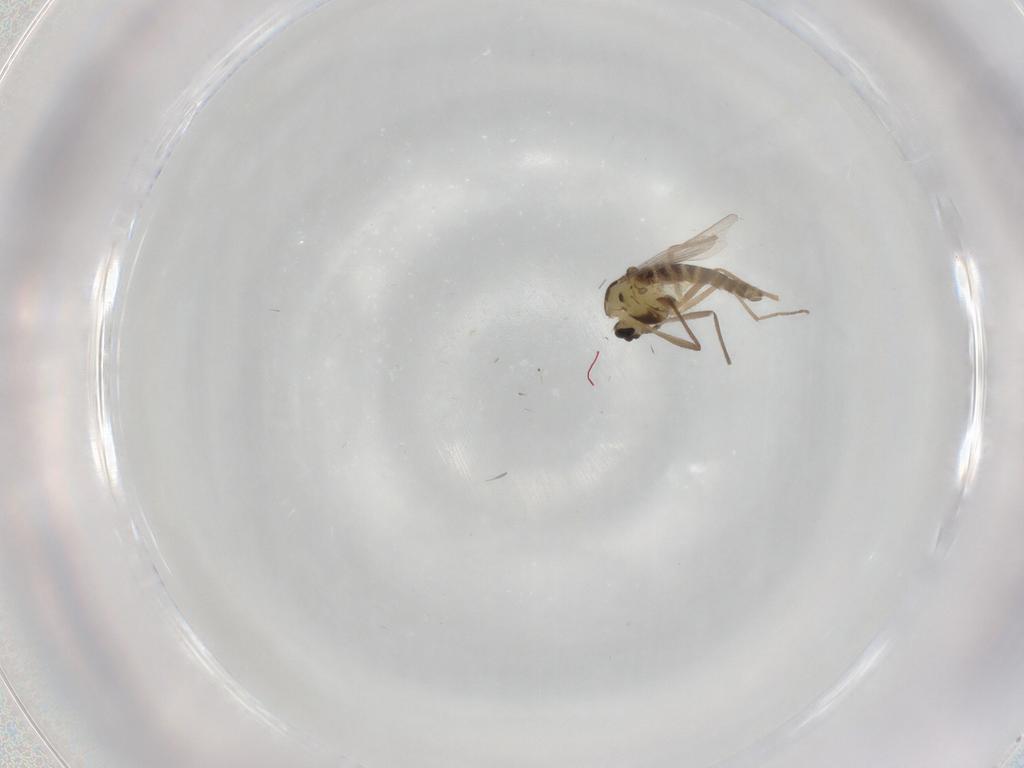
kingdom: Animalia
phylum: Arthropoda
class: Insecta
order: Diptera
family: Chironomidae
